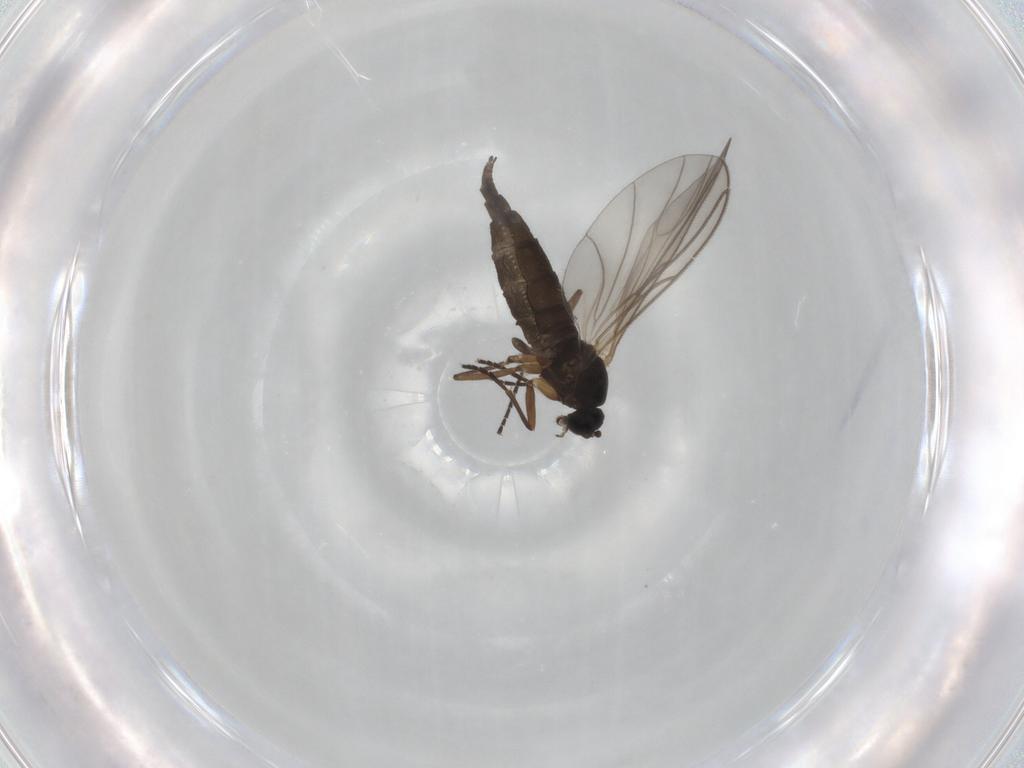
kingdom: Animalia
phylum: Arthropoda
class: Insecta
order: Diptera
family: Sciaridae
